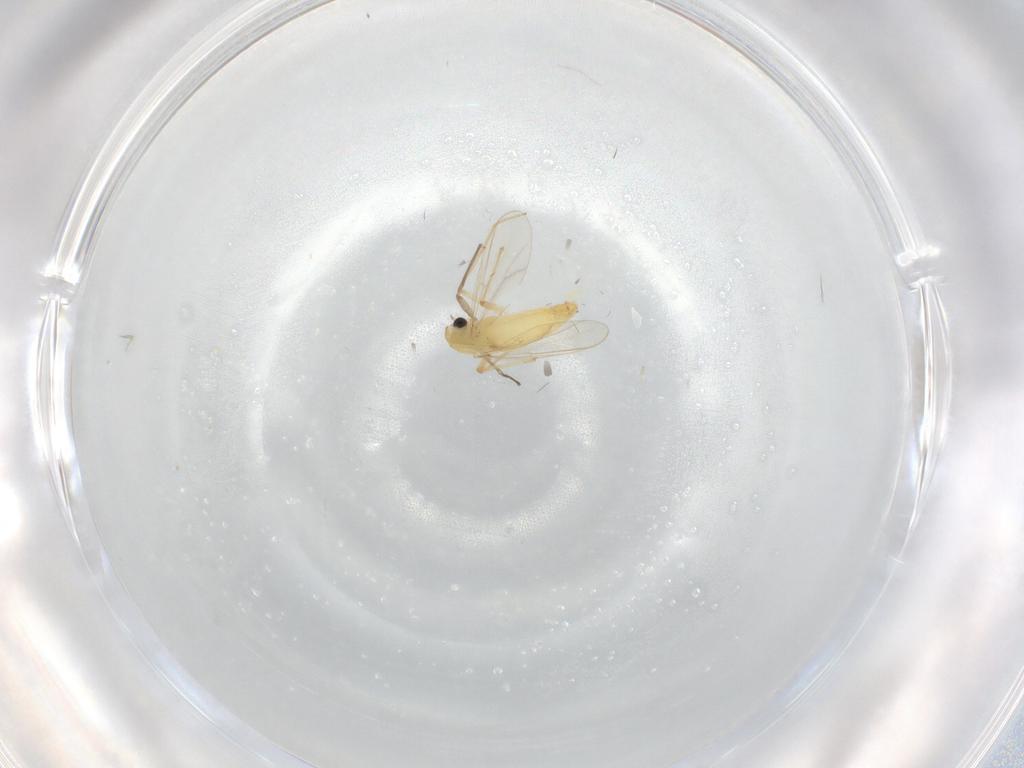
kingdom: Animalia
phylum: Arthropoda
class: Insecta
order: Diptera
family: Chironomidae
